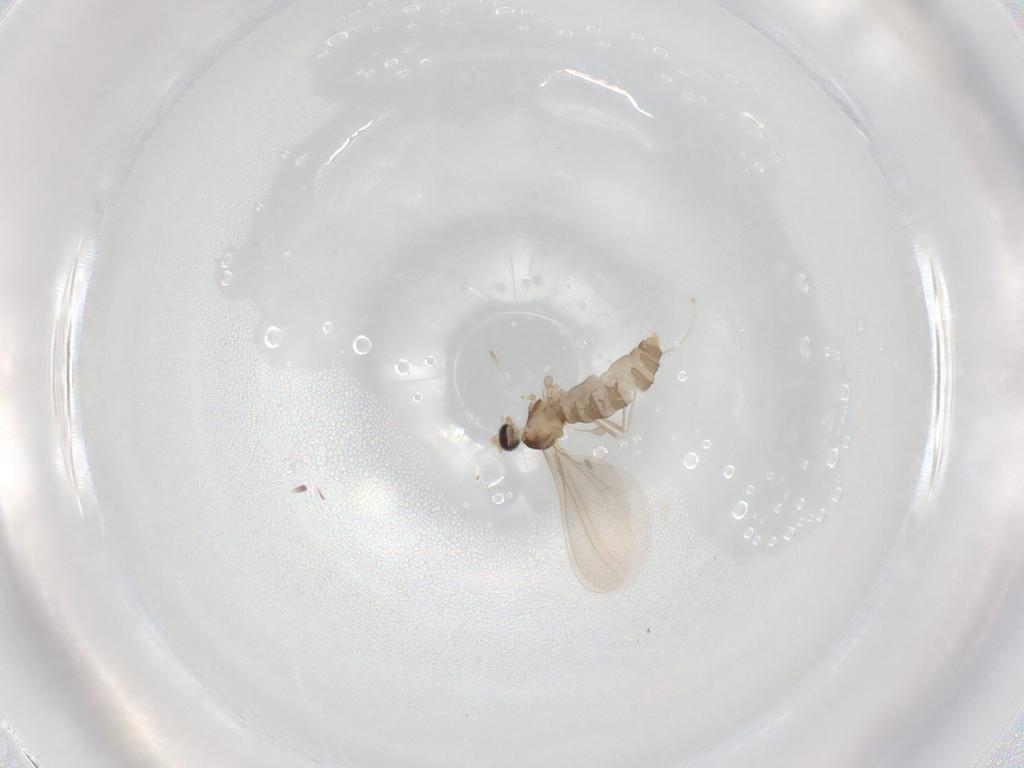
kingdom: Animalia
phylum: Arthropoda
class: Insecta
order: Diptera
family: Cecidomyiidae
